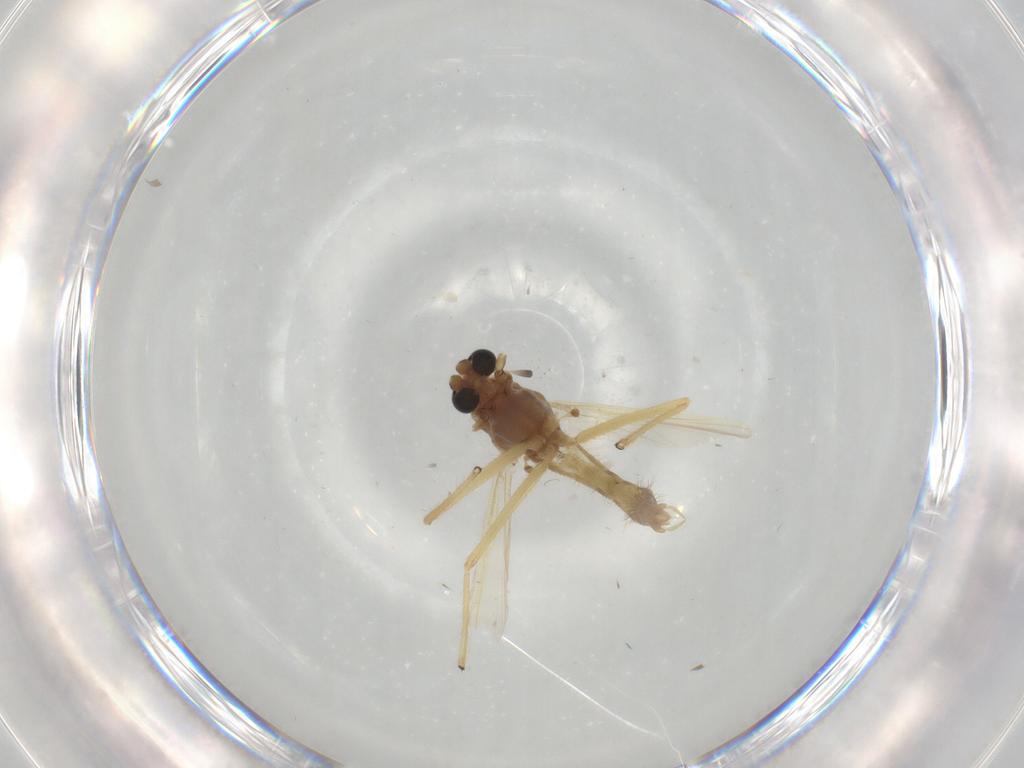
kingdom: Animalia
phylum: Arthropoda
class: Insecta
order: Diptera
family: Chironomidae
